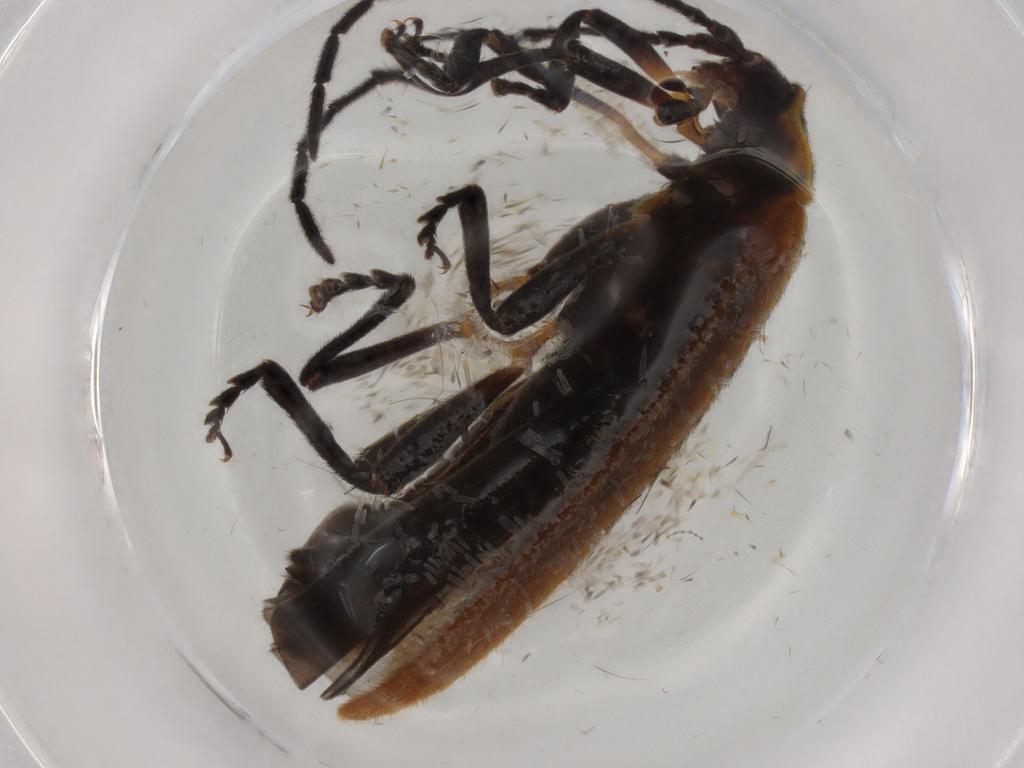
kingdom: Animalia
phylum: Arthropoda
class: Insecta
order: Coleoptera
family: Lycidae
